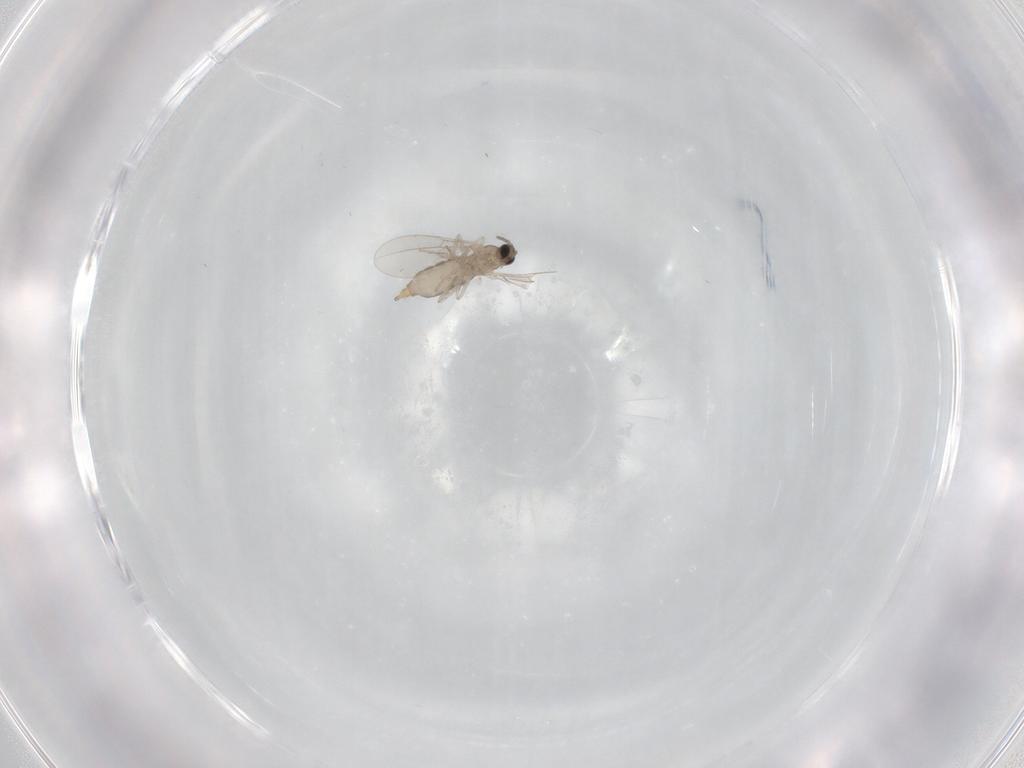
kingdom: Animalia
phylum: Arthropoda
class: Insecta
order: Diptera
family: Cecidomyiidae
